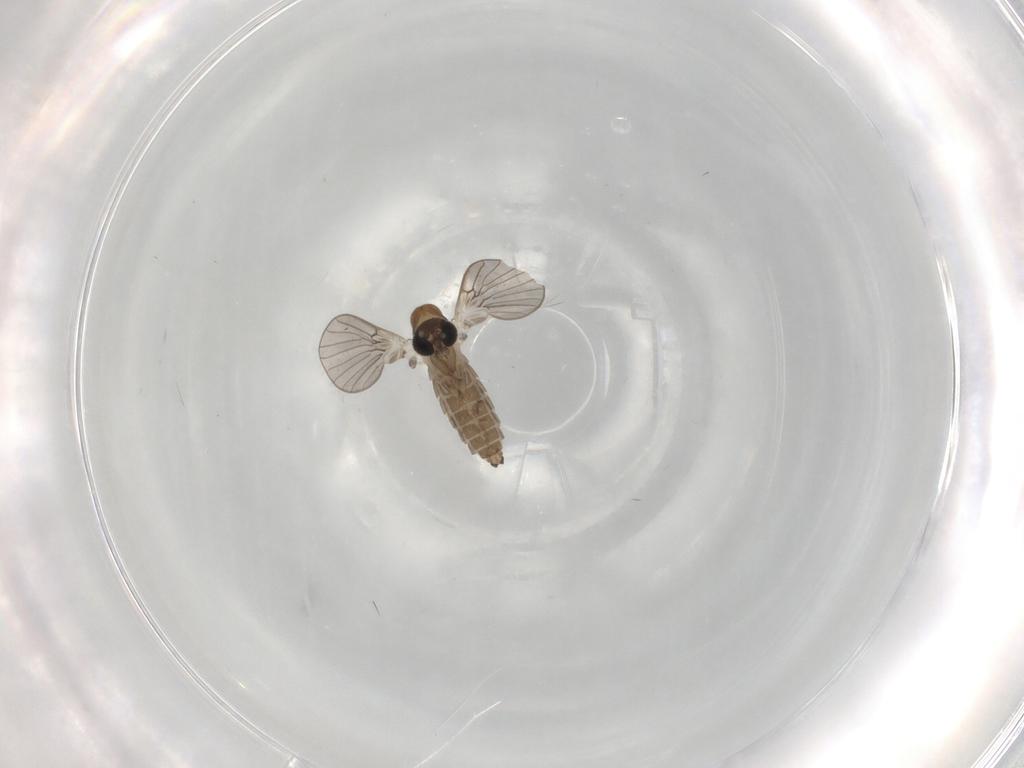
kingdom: Animalia
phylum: Arthropoda
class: Insecta
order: Diptera
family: Psychodidae
